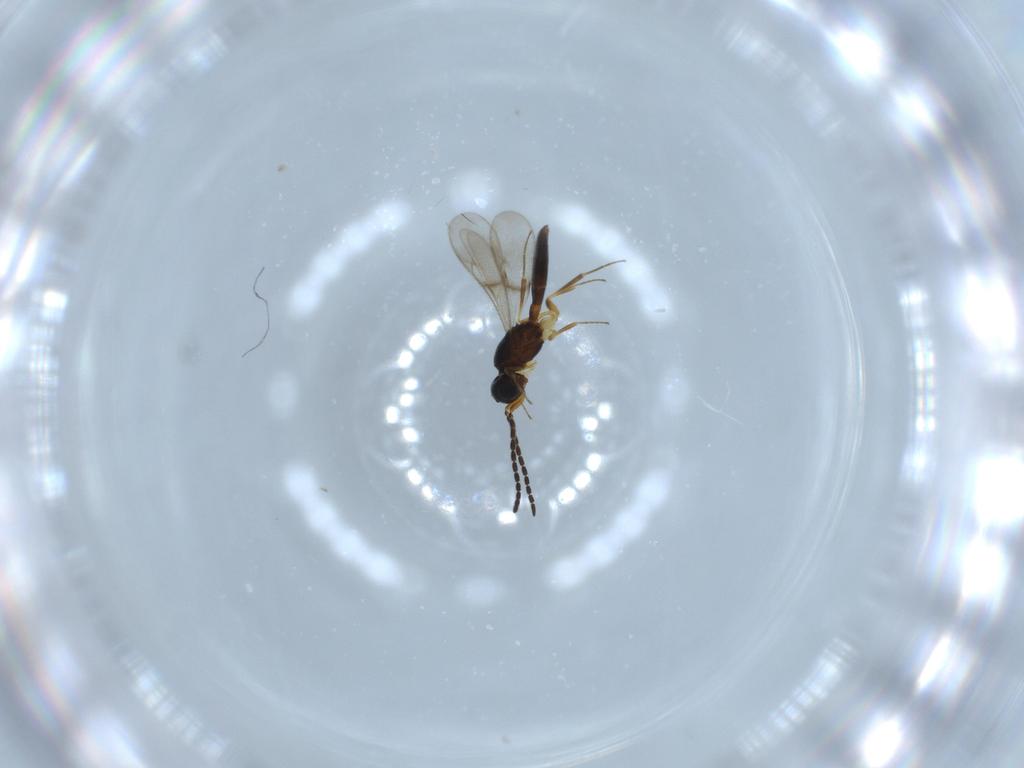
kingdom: Animalia
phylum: Arthropoda
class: Insecta
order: Hymenoptera
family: Scelionidae
